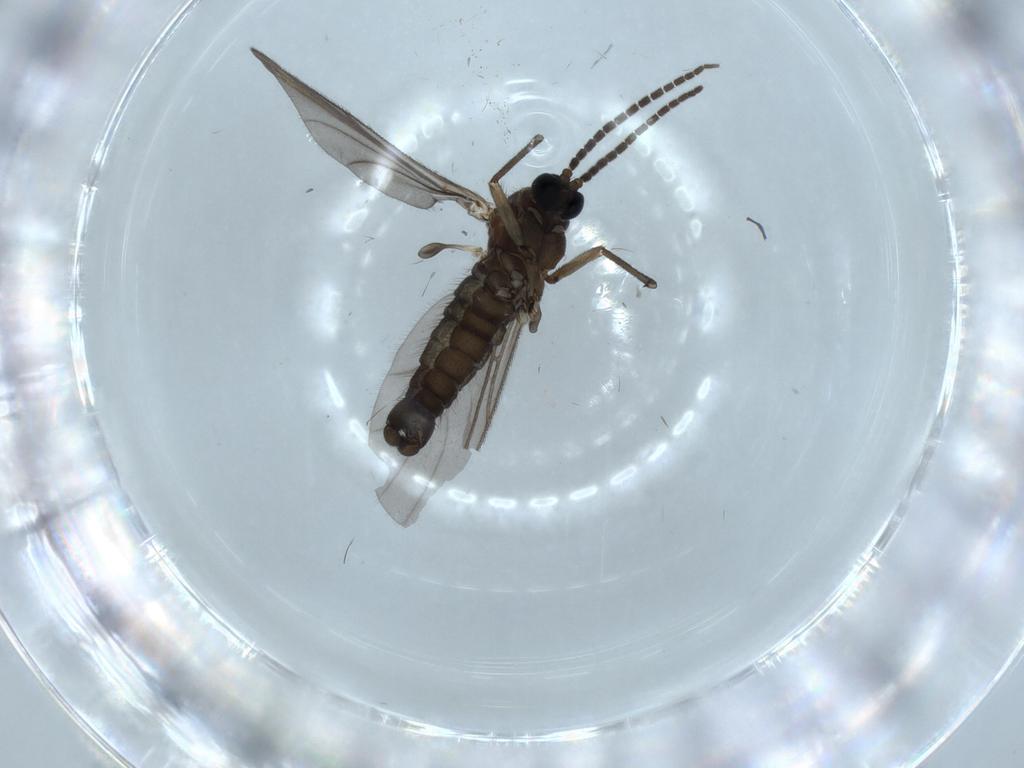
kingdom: Animalia
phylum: Arthropoda
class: Insecta
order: Diptera
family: Sciaridae
